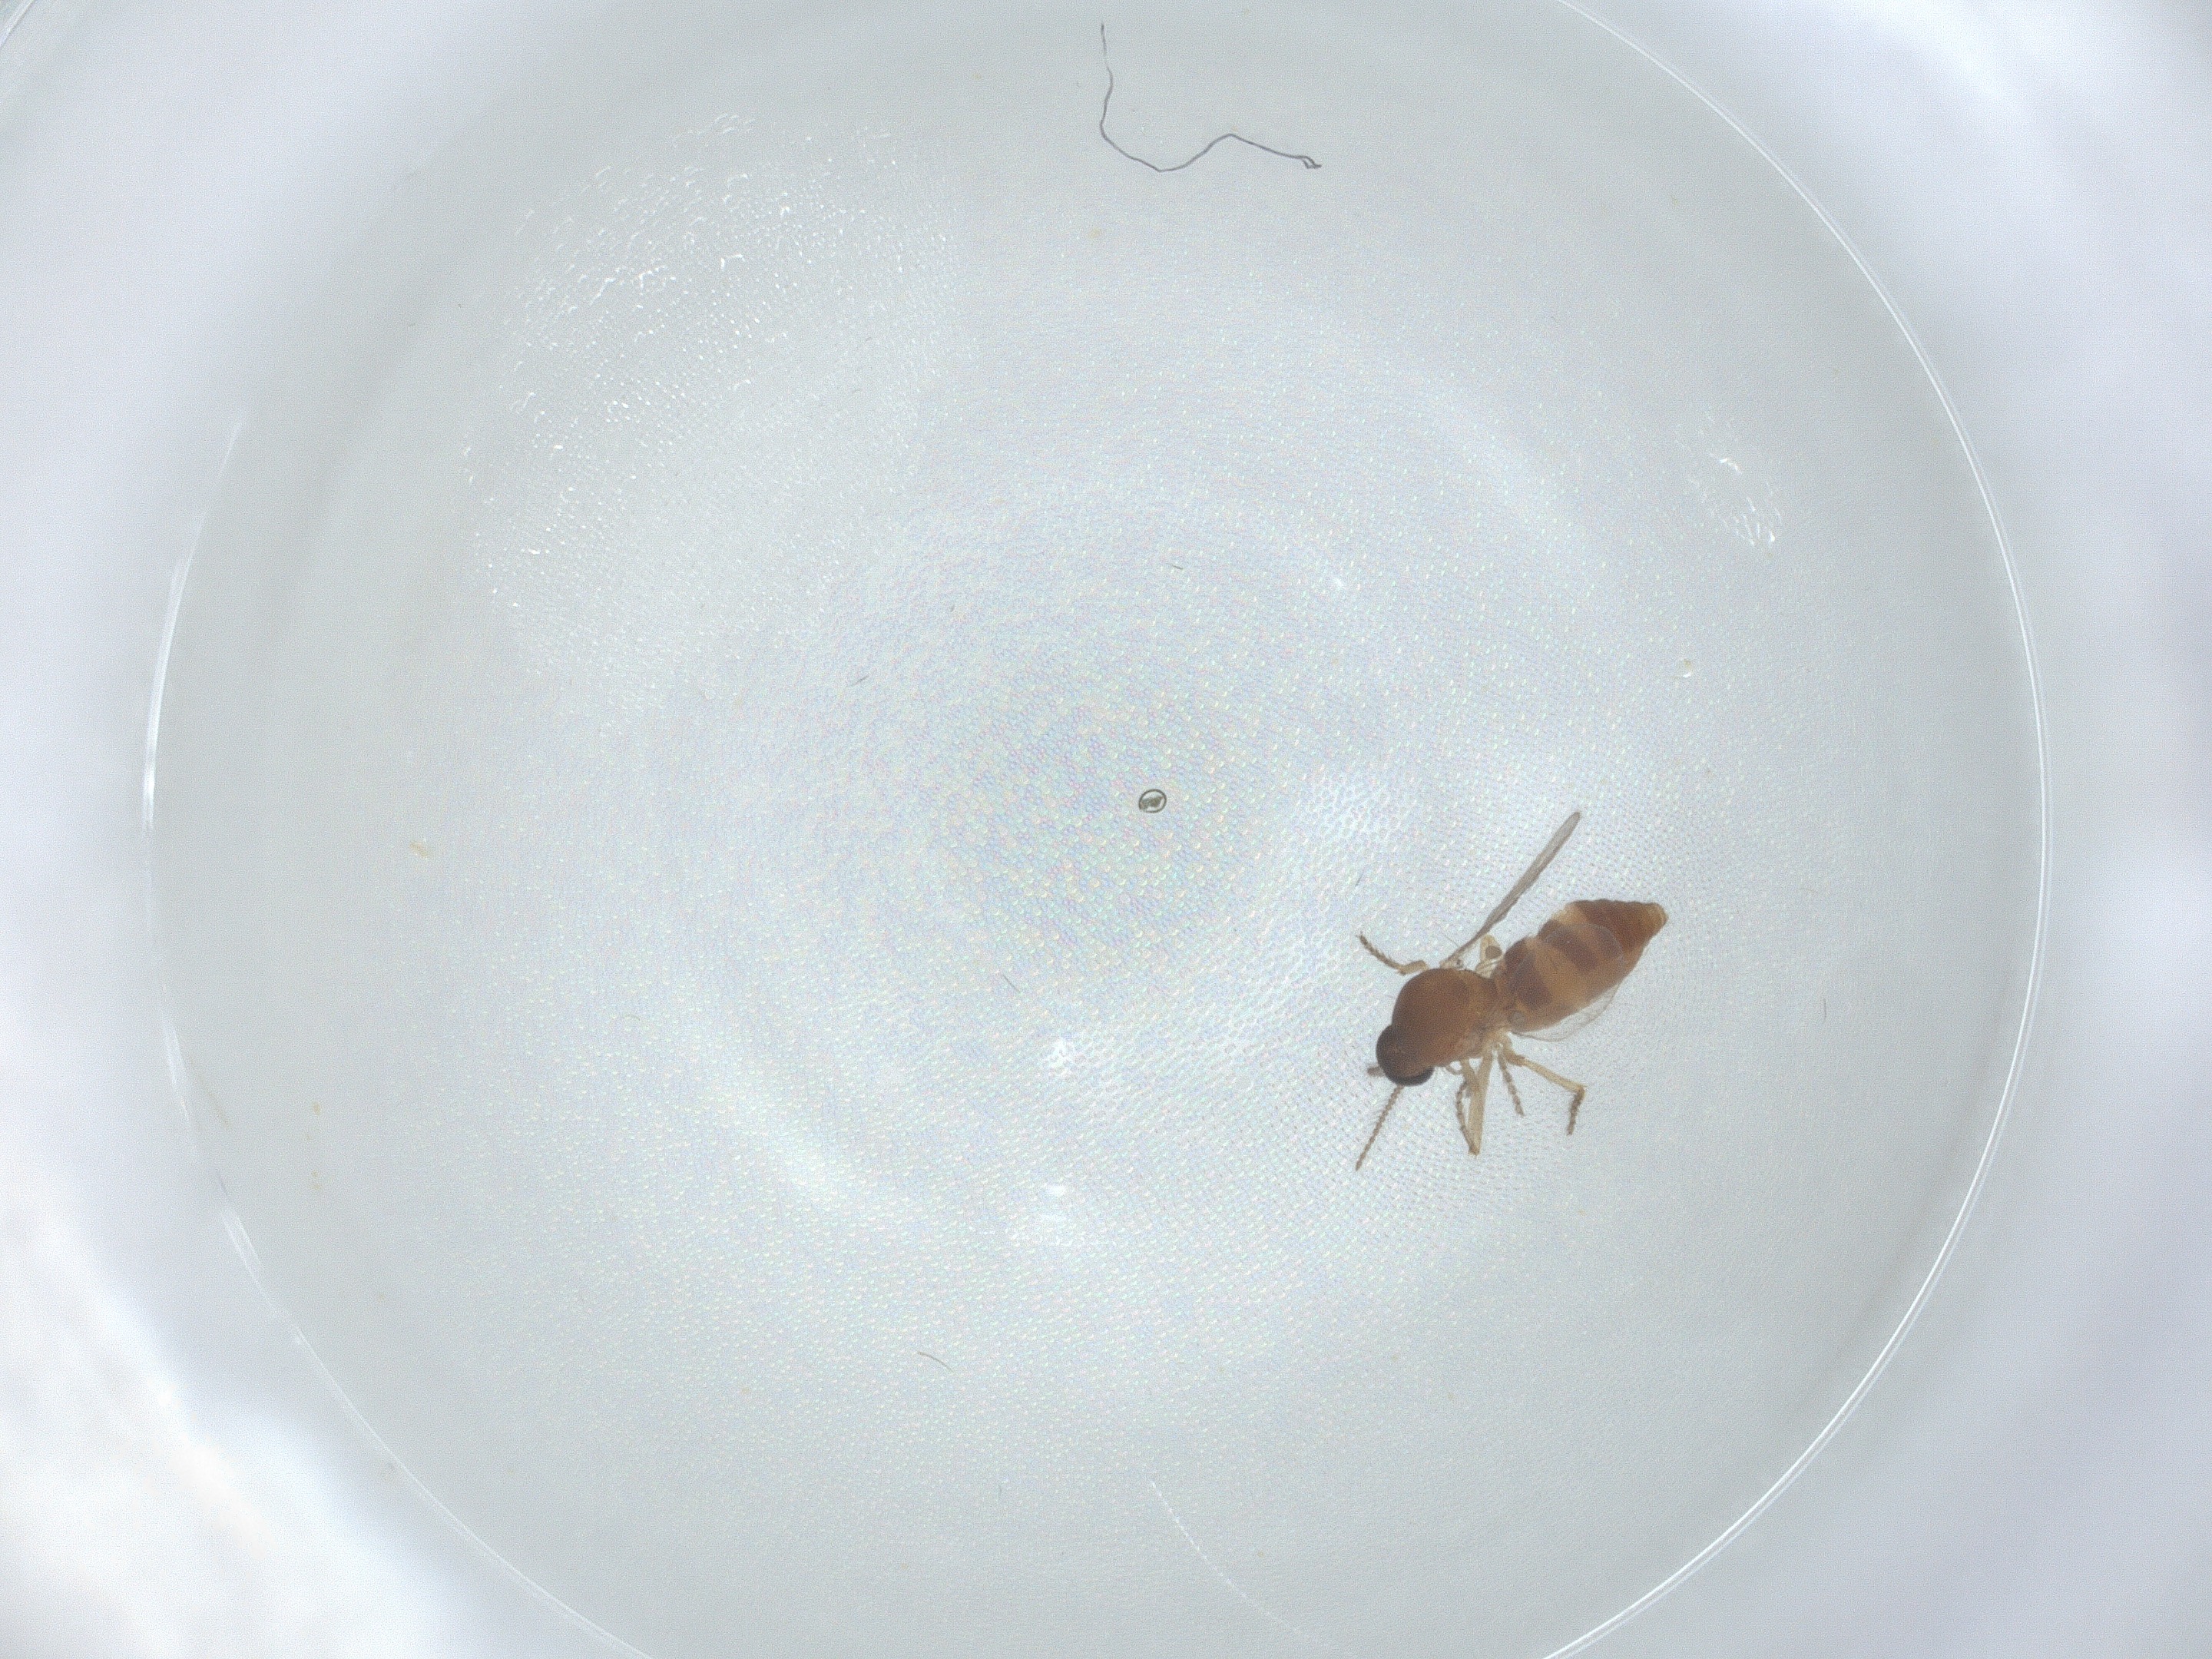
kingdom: Animalia
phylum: Arthropoda
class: Insecta
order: Diptera
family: Ceratopogonidae
